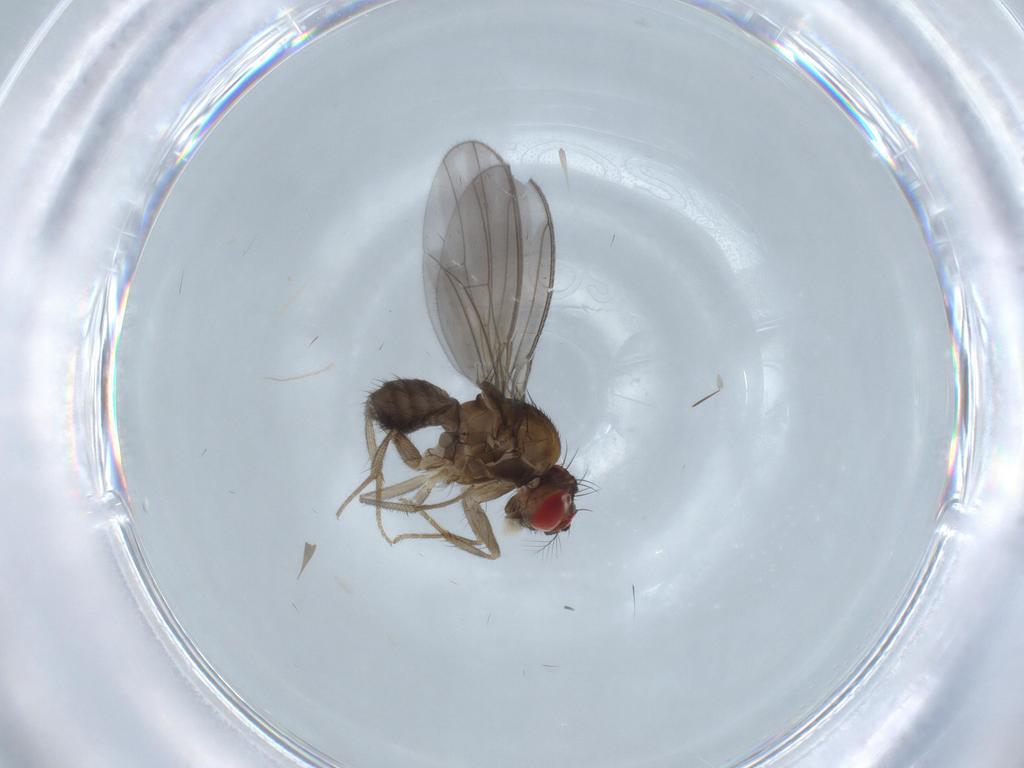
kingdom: Animalia
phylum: Arthropoda
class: Insecta
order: Diptera
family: Drosophilidae
